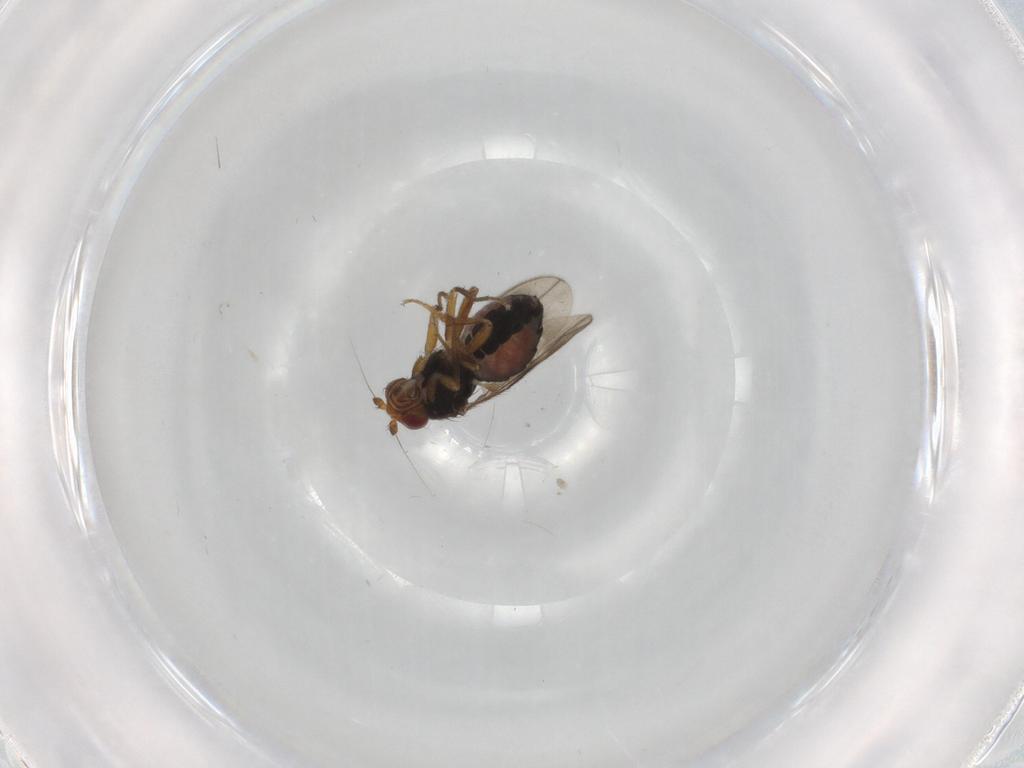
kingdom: Animalia
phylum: Arthropoda
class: Insecta
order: Diptera
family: Sphaeroceridae
